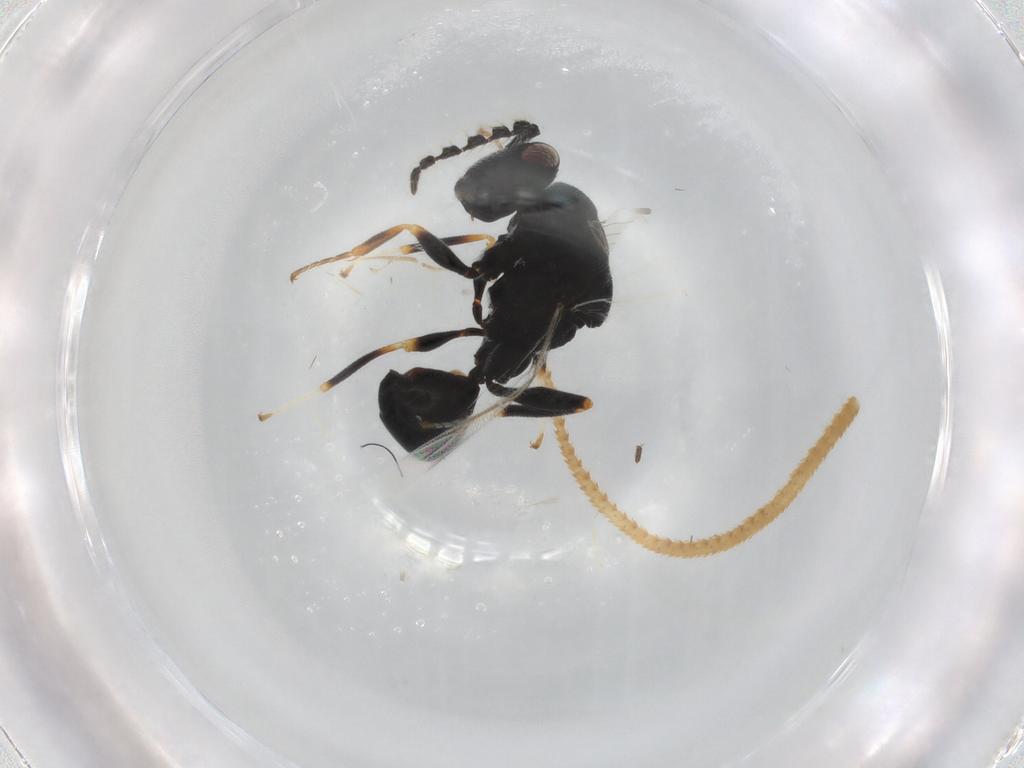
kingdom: Animalia
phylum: Arthropoda
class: Insecta
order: Hymenoptera
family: Eurytomidae
